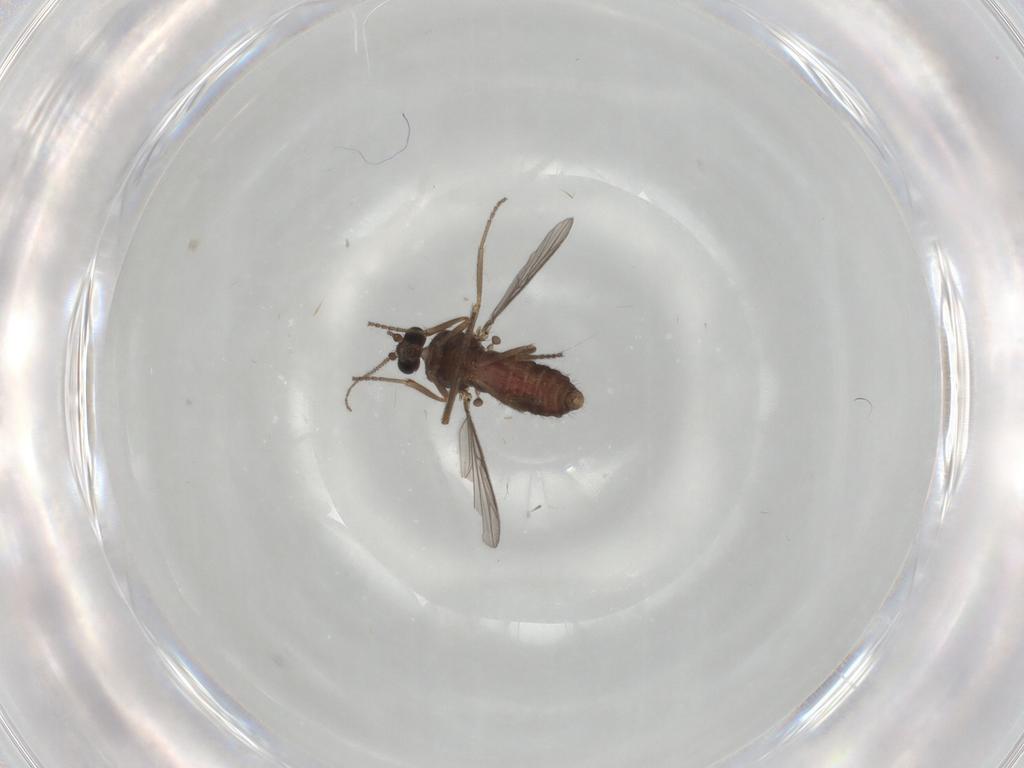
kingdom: Animalia
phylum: Arthropoda
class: Insecta
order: Diptera
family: Ceratopogonidae
